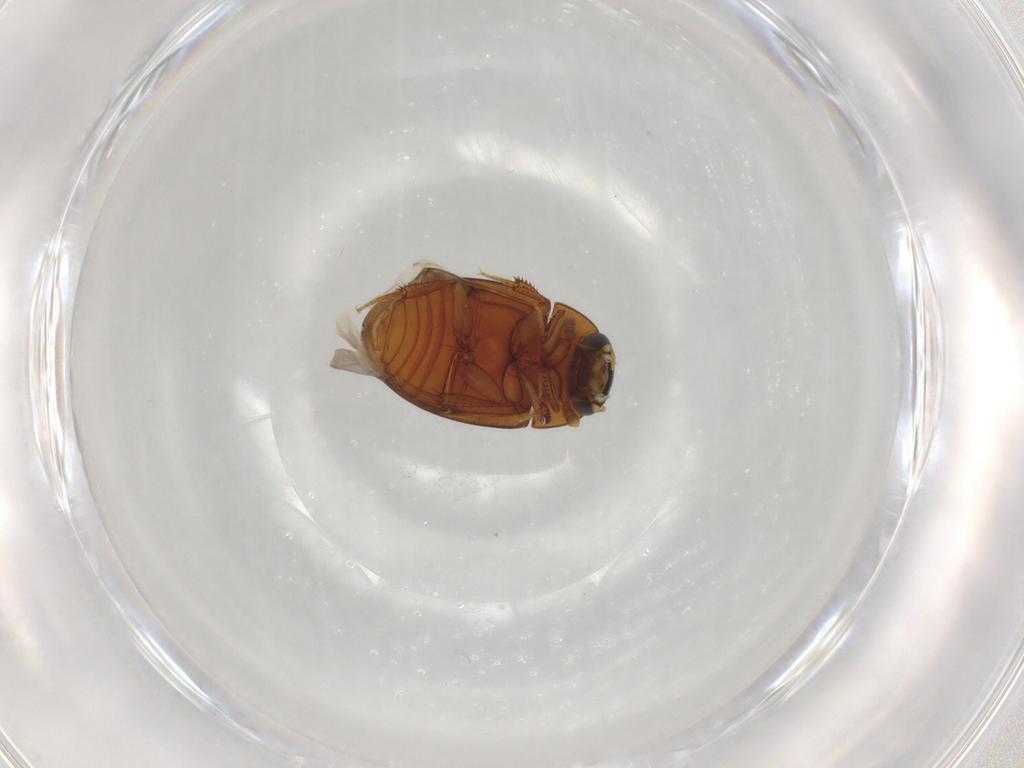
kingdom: Animalia
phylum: Arthropoda
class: Insecta
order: Coleoptera
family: Hydrophilidae
